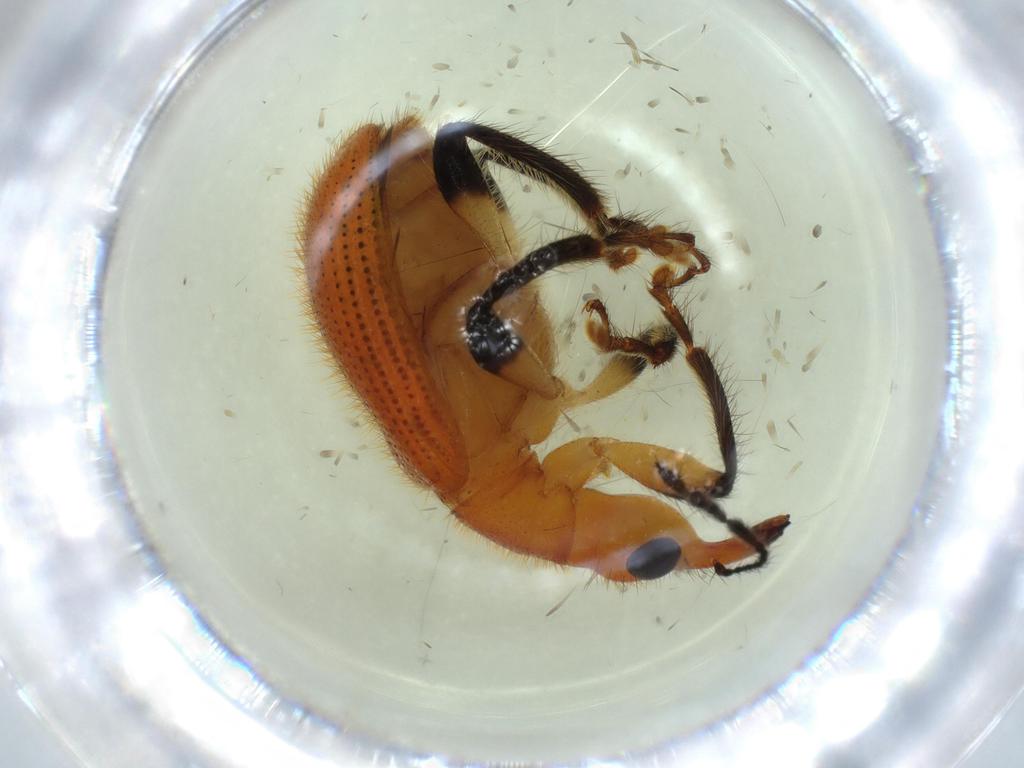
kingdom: Animalia
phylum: Arthropoda
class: Insecta
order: Coleoptera
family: Attelabidae
